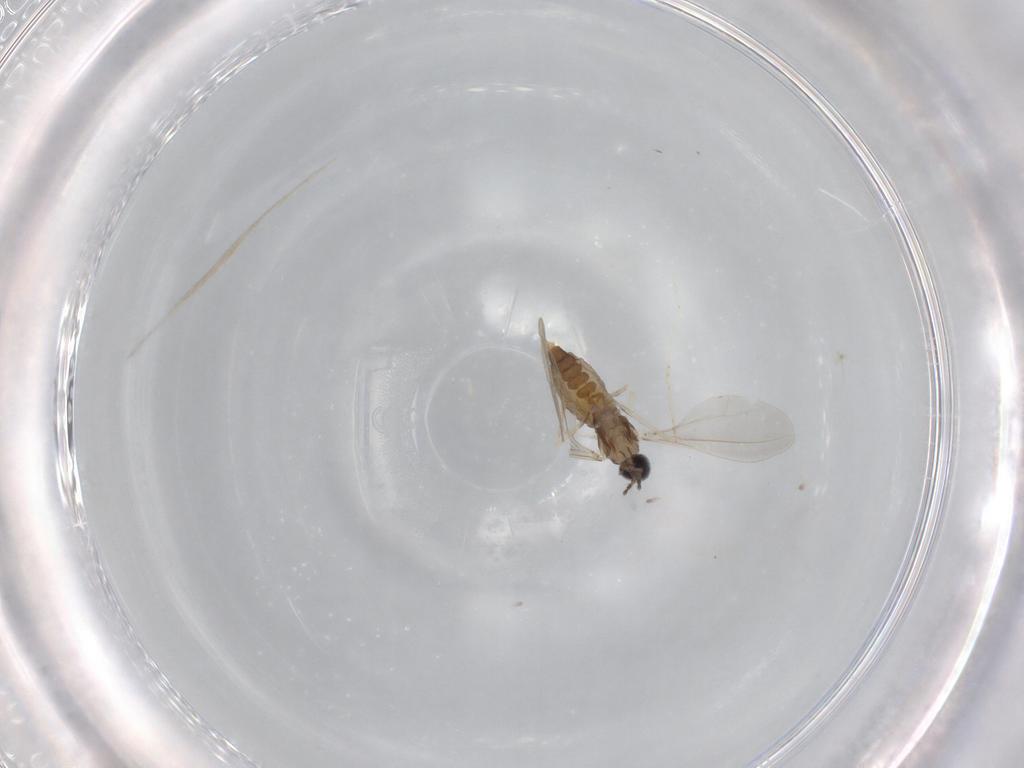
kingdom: Animalia
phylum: Arthropoda
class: Insecta
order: Diptera
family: Cecidomyiidae
